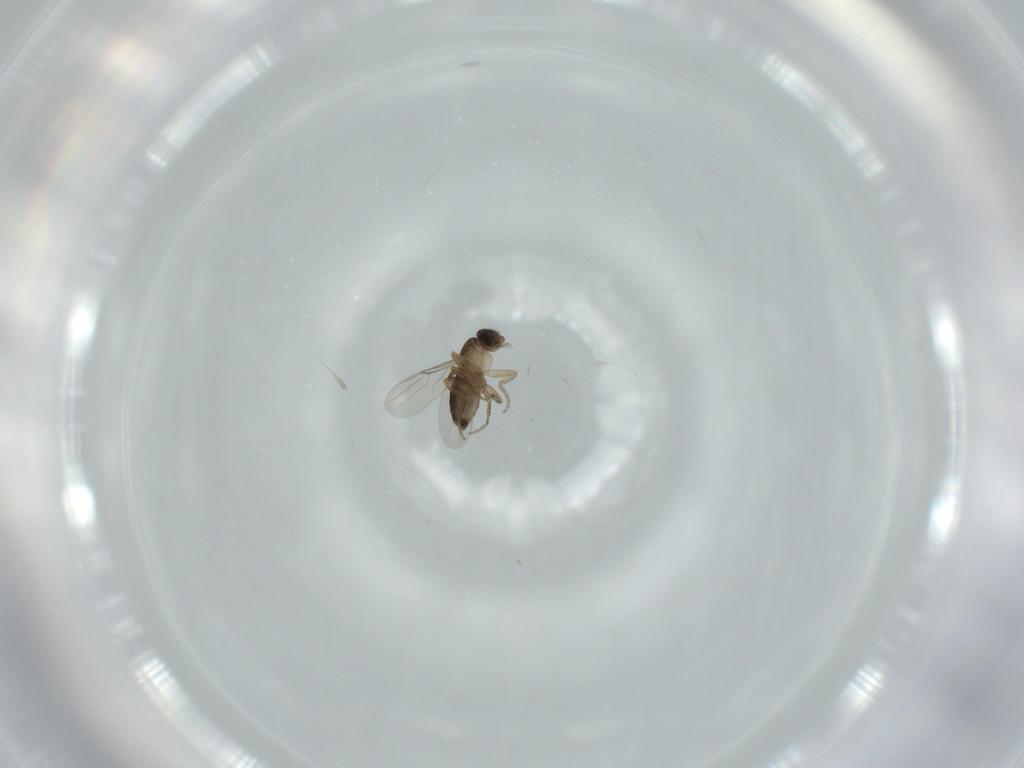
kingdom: Animalia
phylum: Arthropoda
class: Insecta
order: Diptera
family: Phoridae
